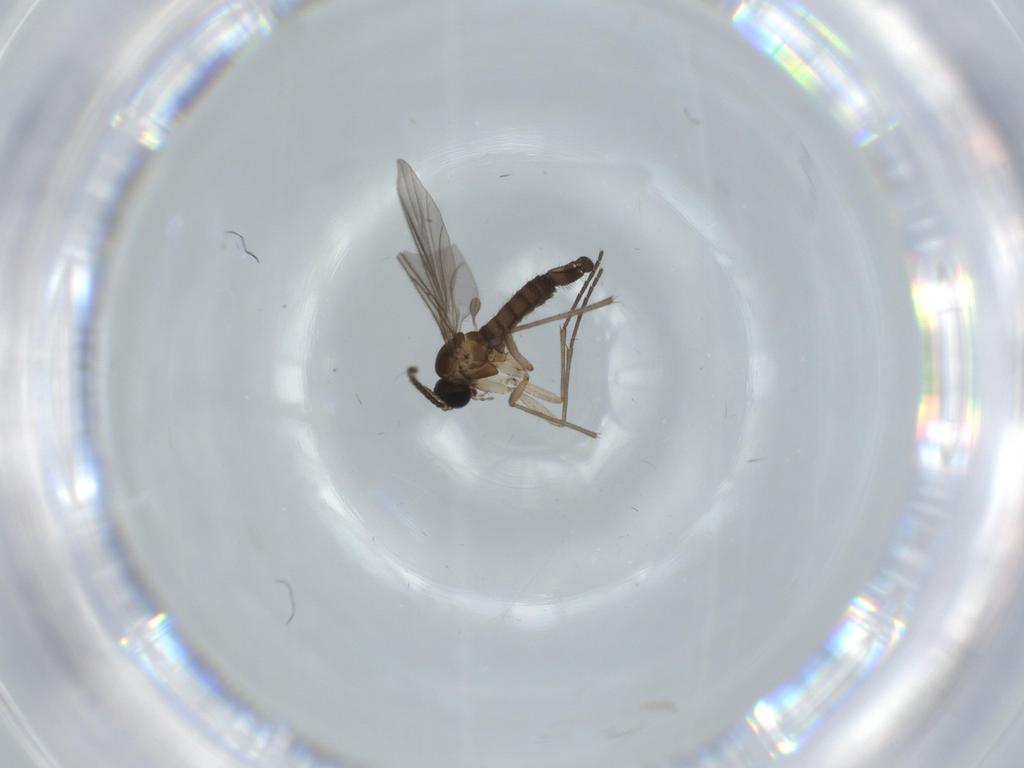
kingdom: Animalia
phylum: Arthropoda
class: Insecta
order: Diptera
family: Sciaridae
